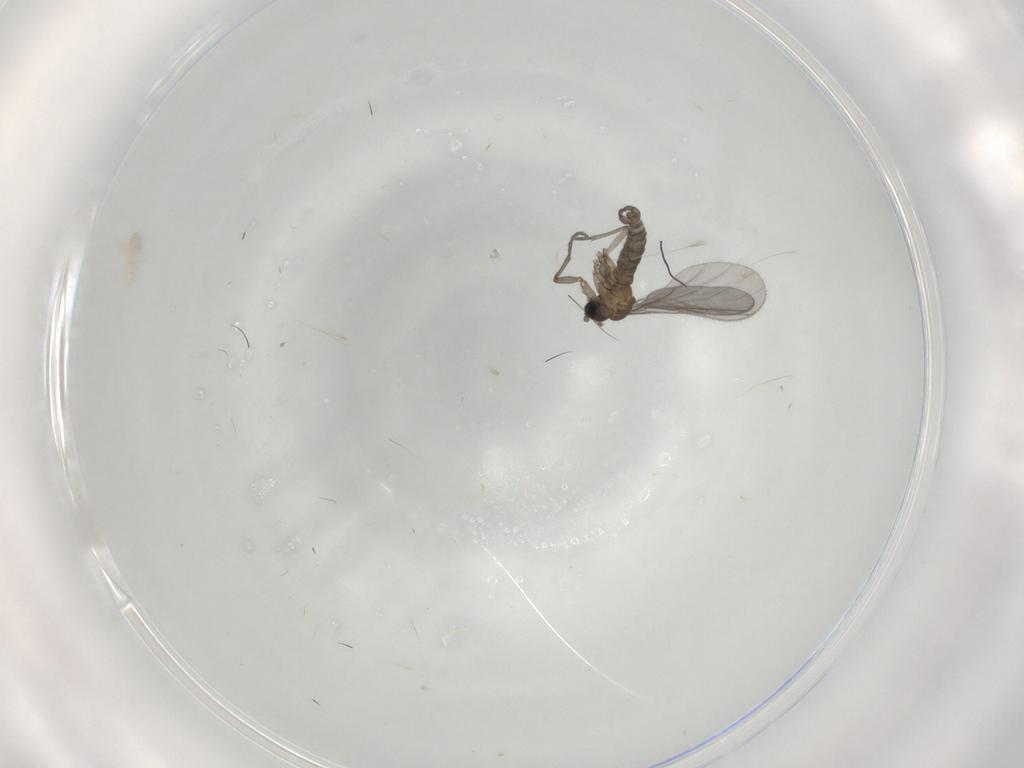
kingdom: Animalia
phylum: Arthropoda
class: Insecta
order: Diptera
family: Sciaridae
